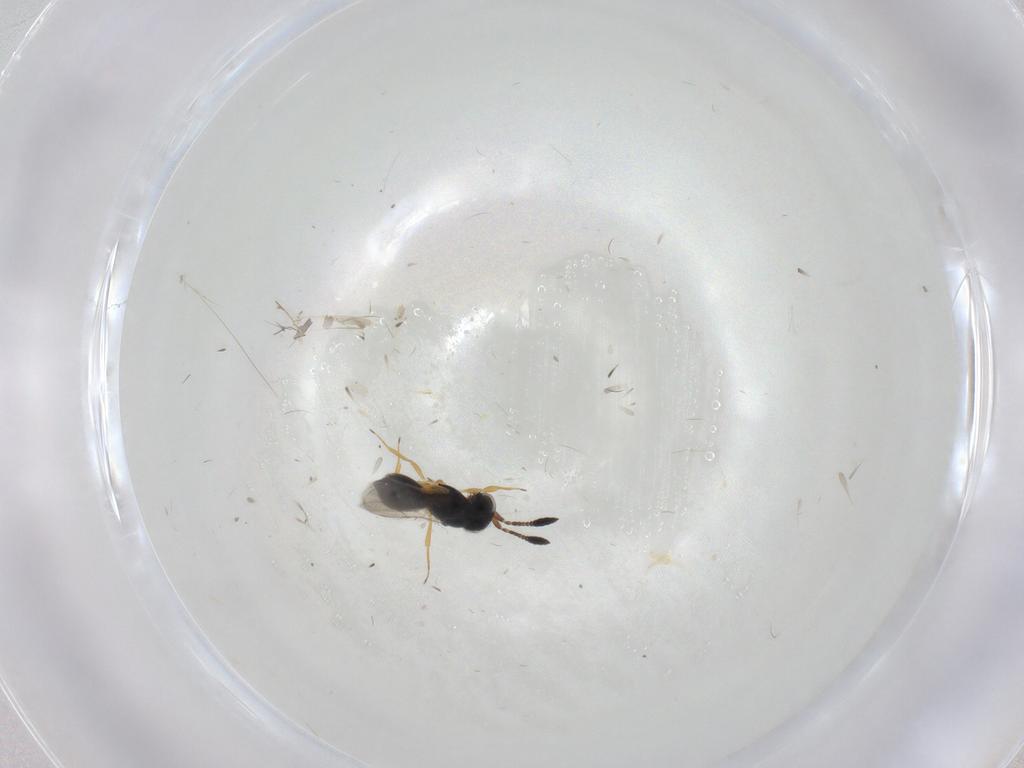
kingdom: Animalia
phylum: Arthropoda
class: Insecta
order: Hymenoptera
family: Scelionidae
